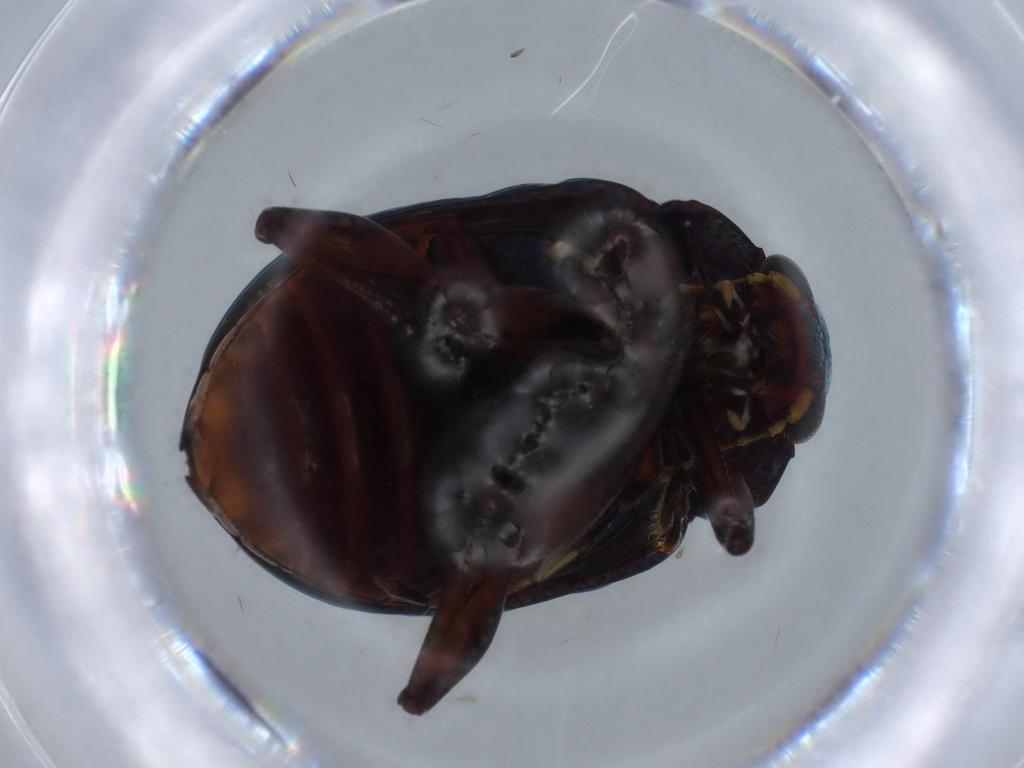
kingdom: Animalia
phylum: Arthropoda
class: Insecta
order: Coleoptera
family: Chrysomelidae
